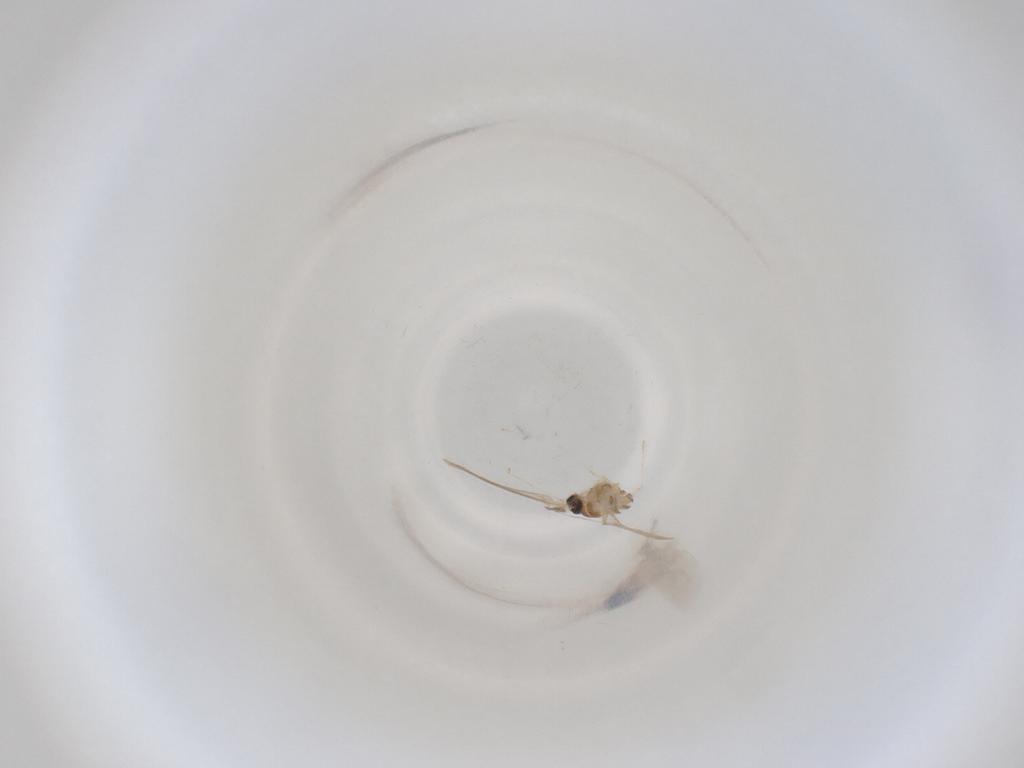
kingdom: Animalia
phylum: Arthropoda
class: Insecta
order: Diptera
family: Cecidomyiidae
